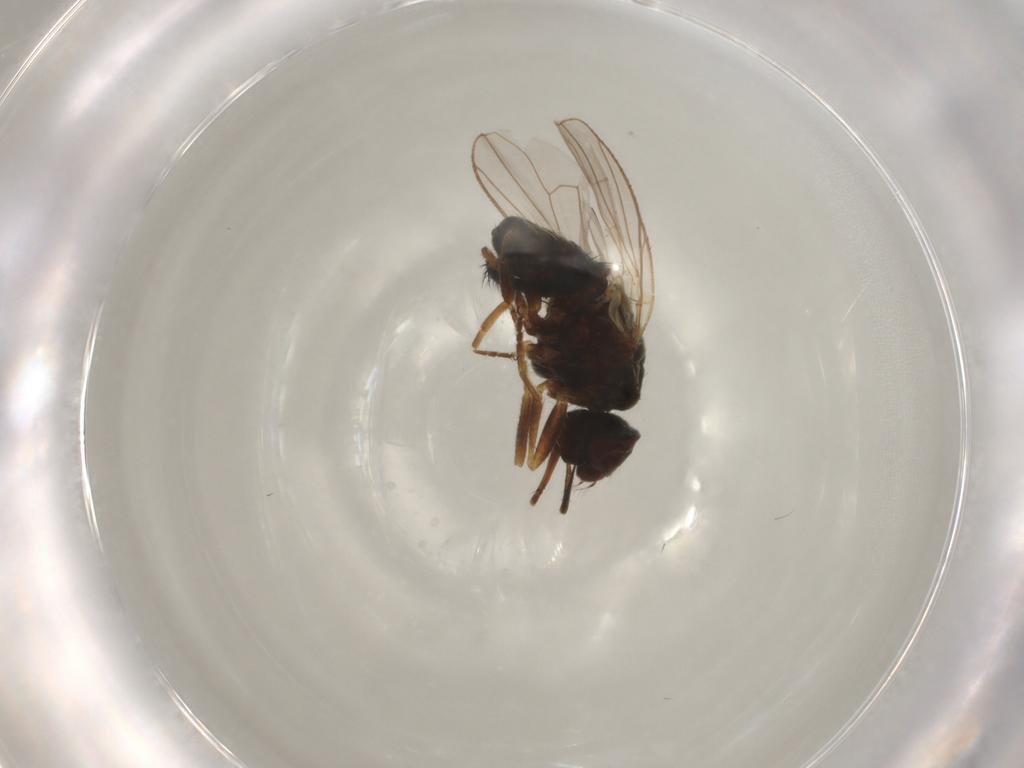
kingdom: Animalia
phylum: Arthropoda
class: Insecta
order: Diptera
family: Muscidae
